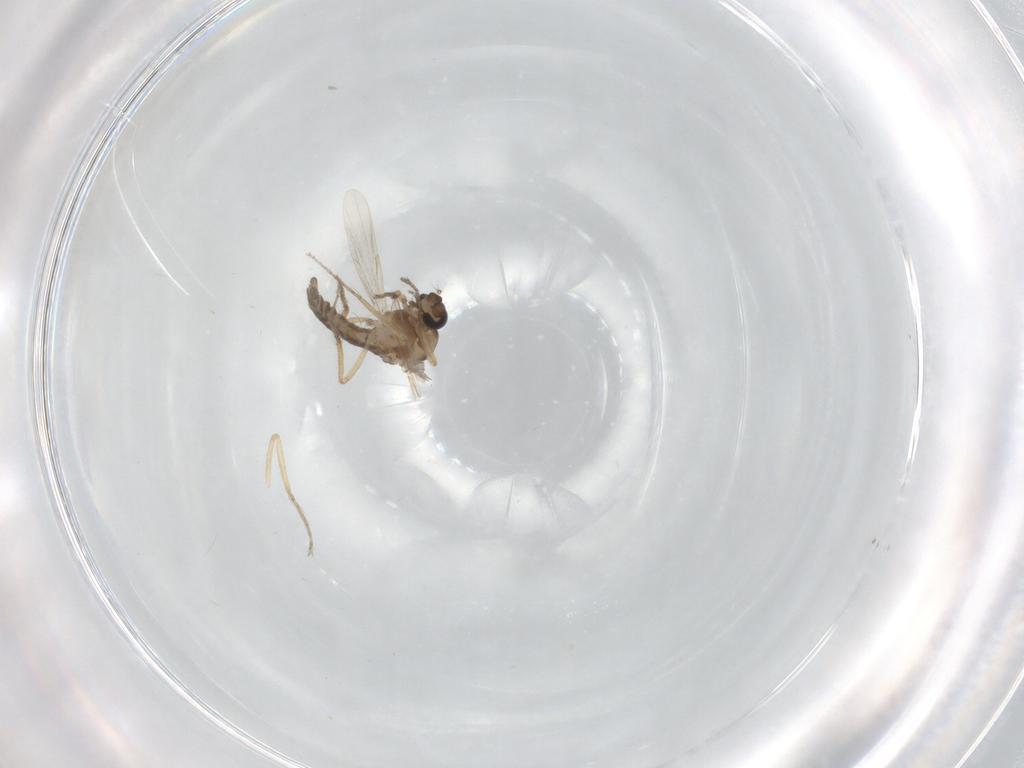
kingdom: Animalia
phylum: Arthropoda
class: Insecta
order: Diptera
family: Ceratopogonidae
